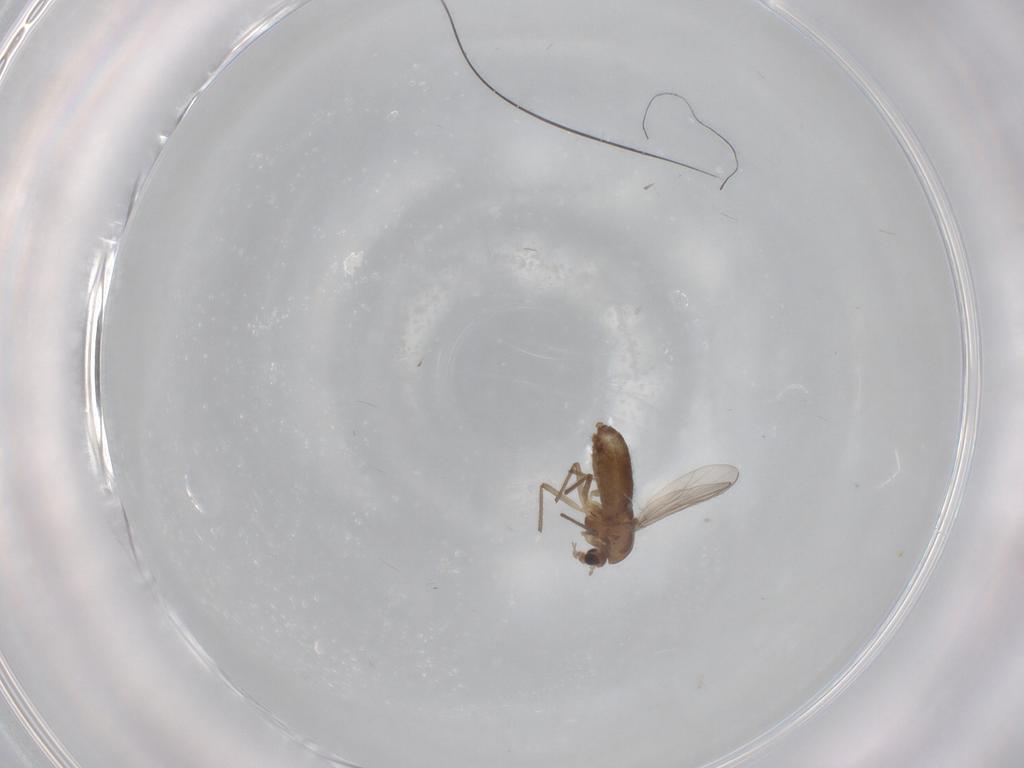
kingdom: Animalia
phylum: Arthropoda
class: Insecta
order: Diptera
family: Chironomidae
